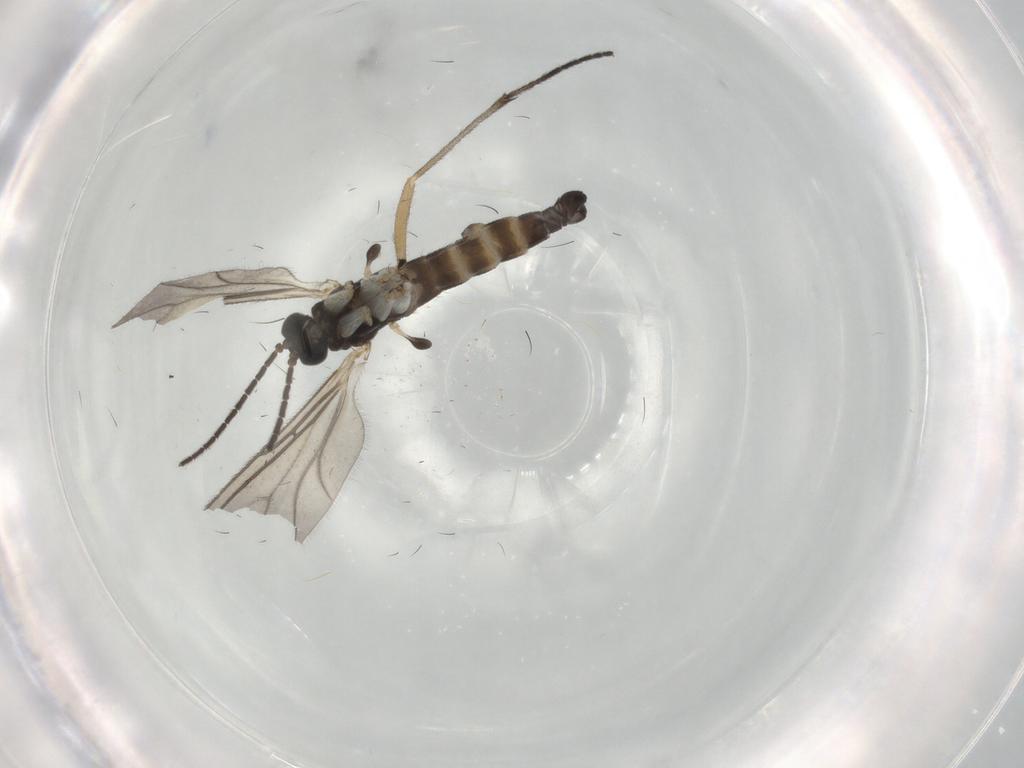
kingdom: Animalia
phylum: Arthropoda
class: Insecta
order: Diptera
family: Sciaridae
